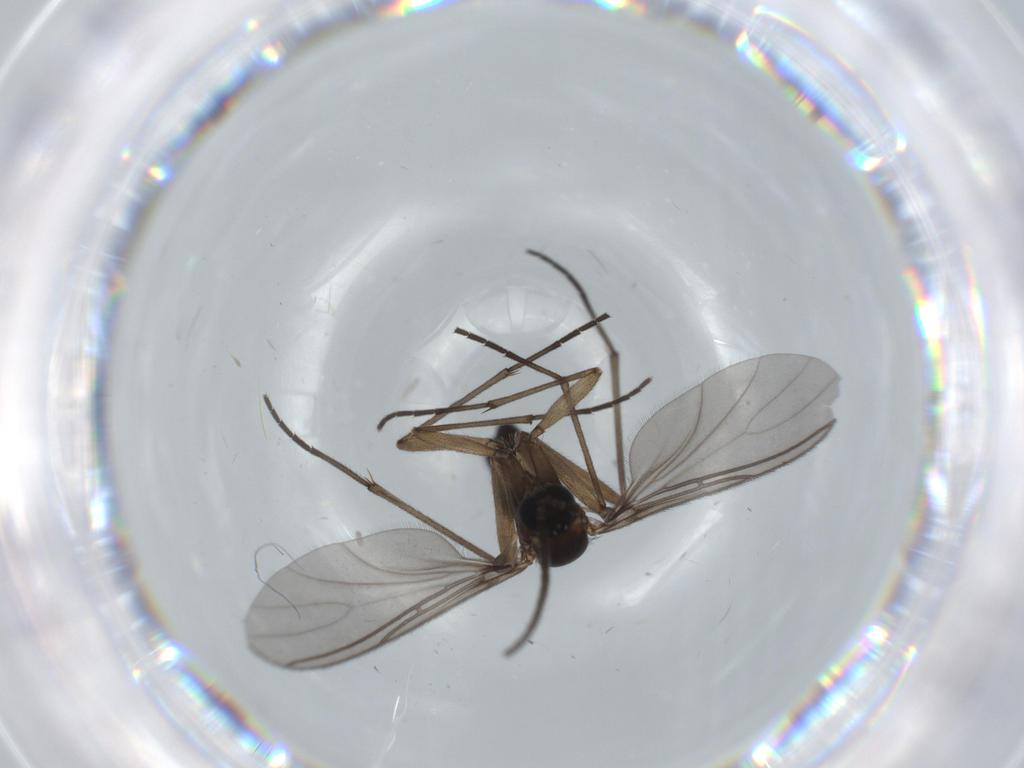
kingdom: Animalia
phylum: Arthropoda
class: Insecta
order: Diptera
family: Sciaridae
